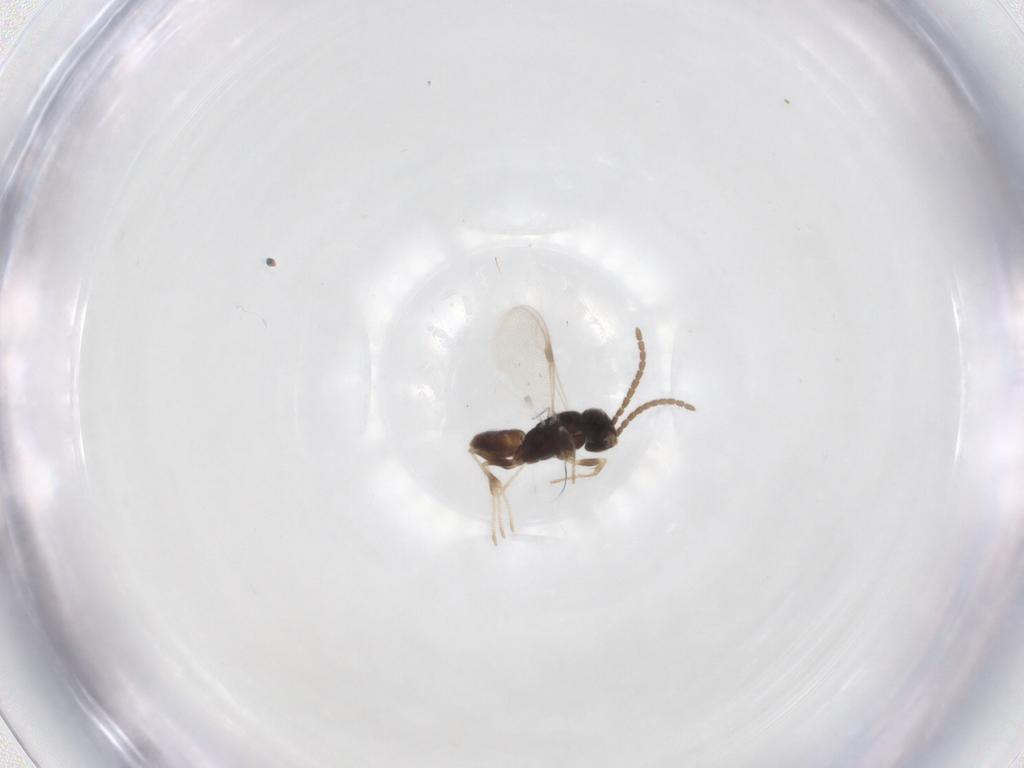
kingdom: Animalia
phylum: Arthropoda
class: Insecta
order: Hymenoptera
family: Dryinidae
